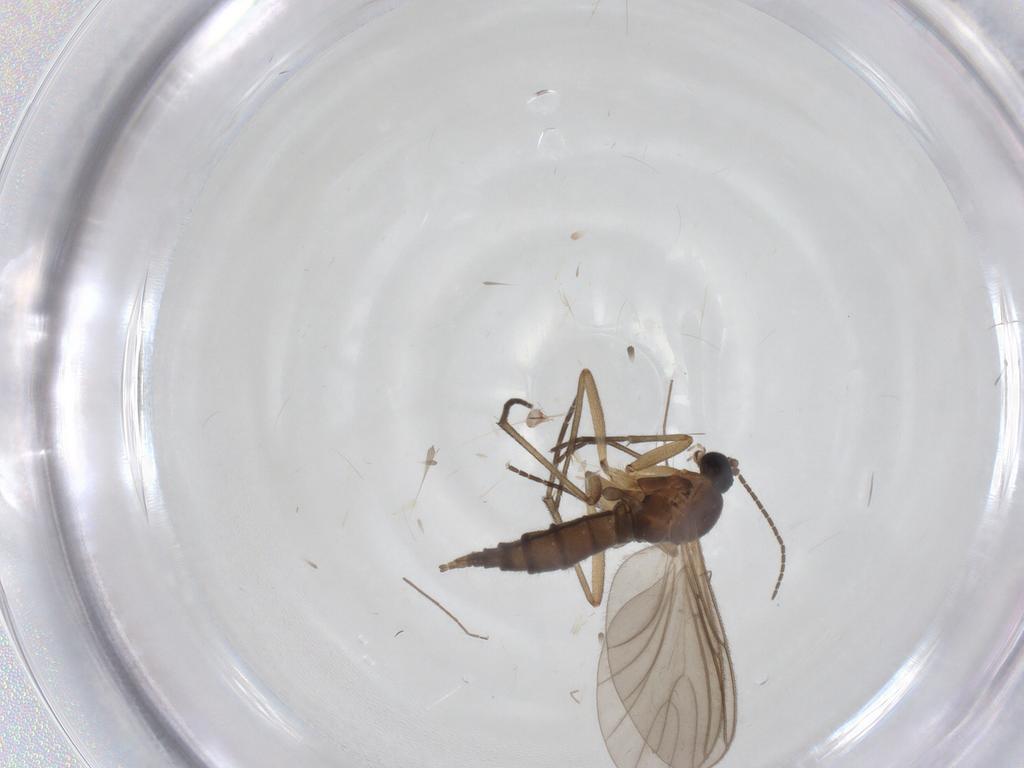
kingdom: Animalia
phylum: Arthropoda
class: Insecta
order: Diptera
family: Sciaridae
